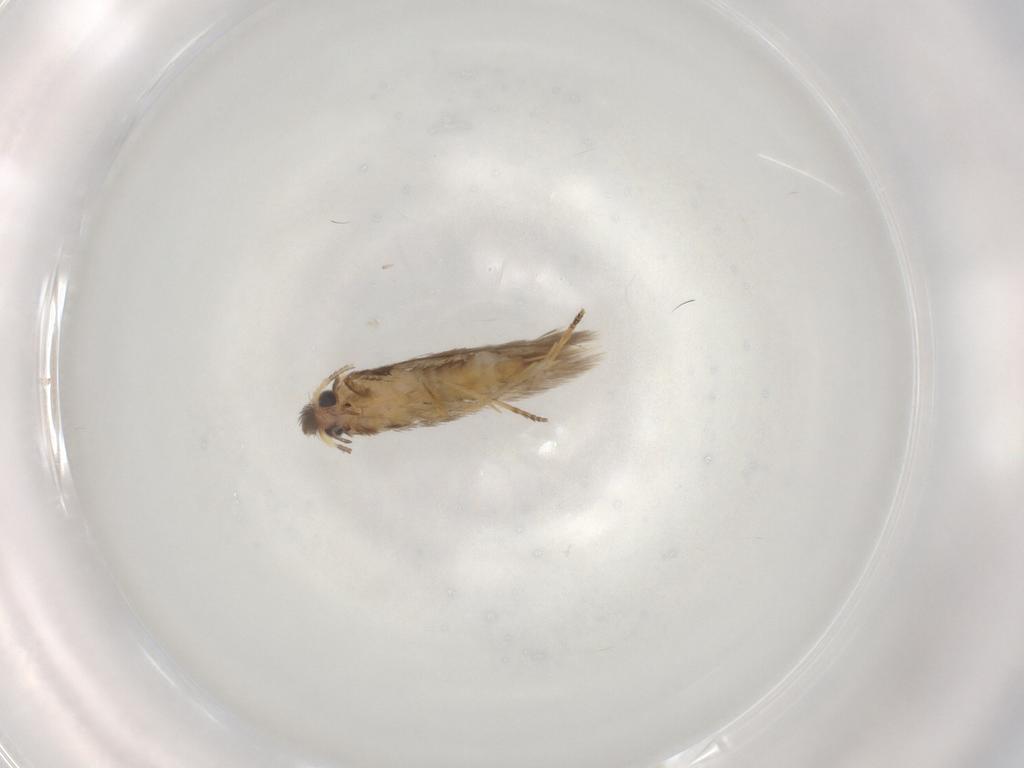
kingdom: Animalia
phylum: Arthropoda
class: Insecta
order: Lepidoptera
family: Nepticulidae
